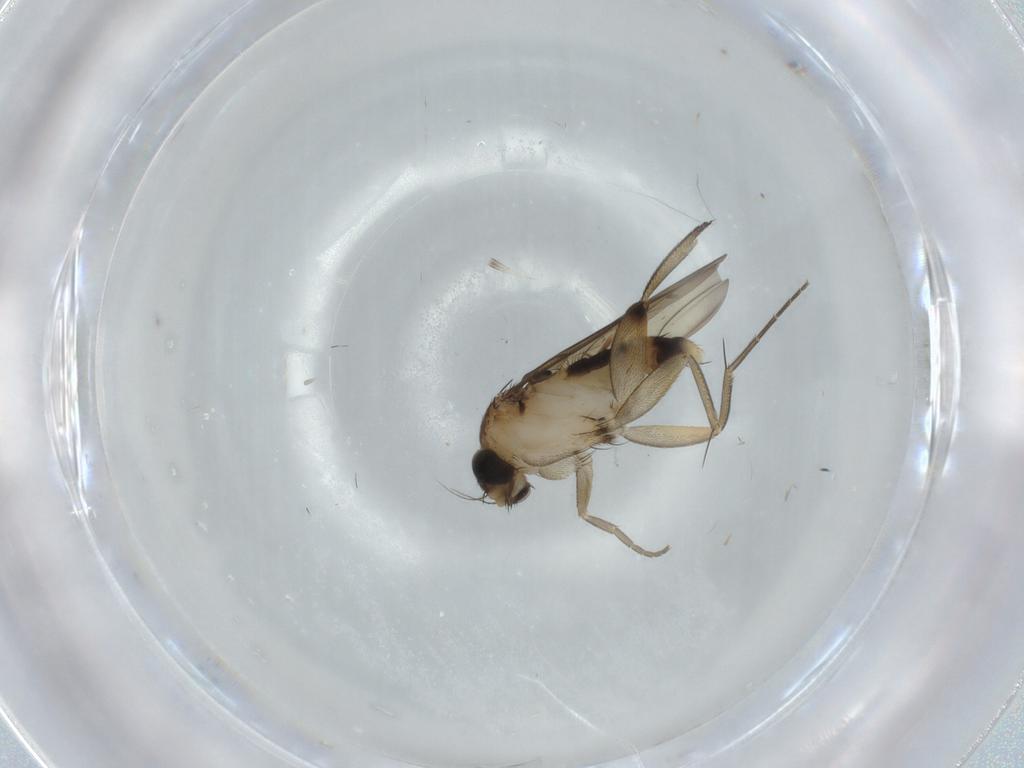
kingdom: Animalia
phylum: Arthropoda
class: Insecta
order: Diptera
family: Phoridae
